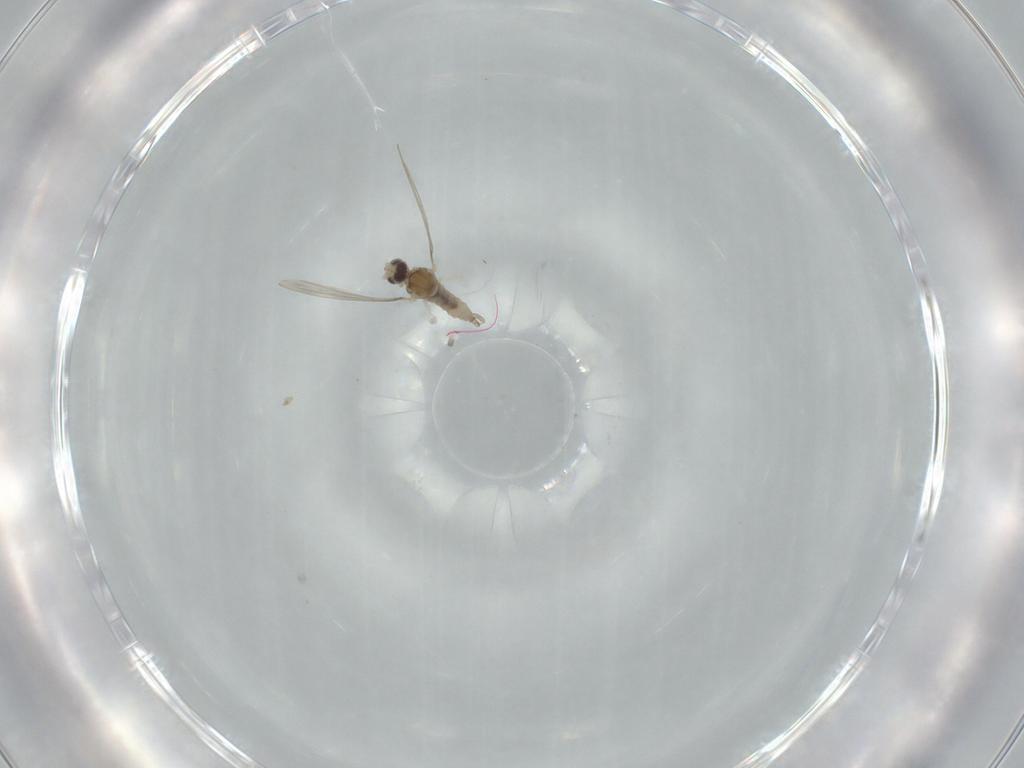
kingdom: Animalia
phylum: Arthropoda
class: Insecta
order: Diptera
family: Cecidomyiidae
